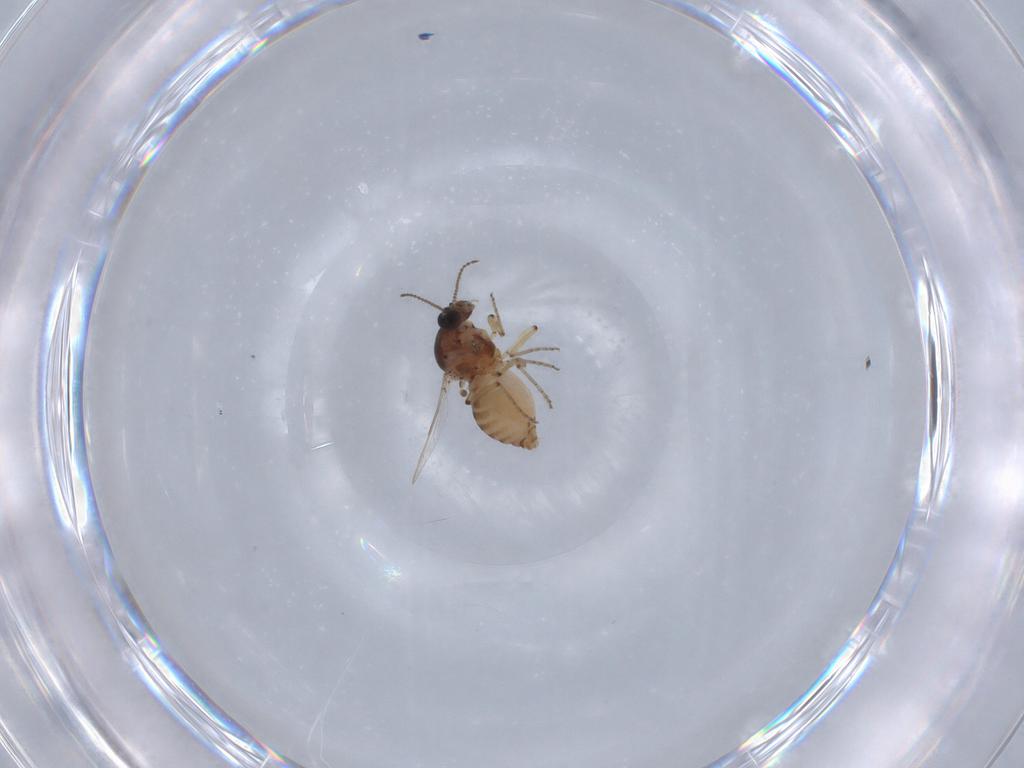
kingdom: Animalia
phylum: Arthropoda
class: Insecta
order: Diptera
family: Ceratopogonidae
